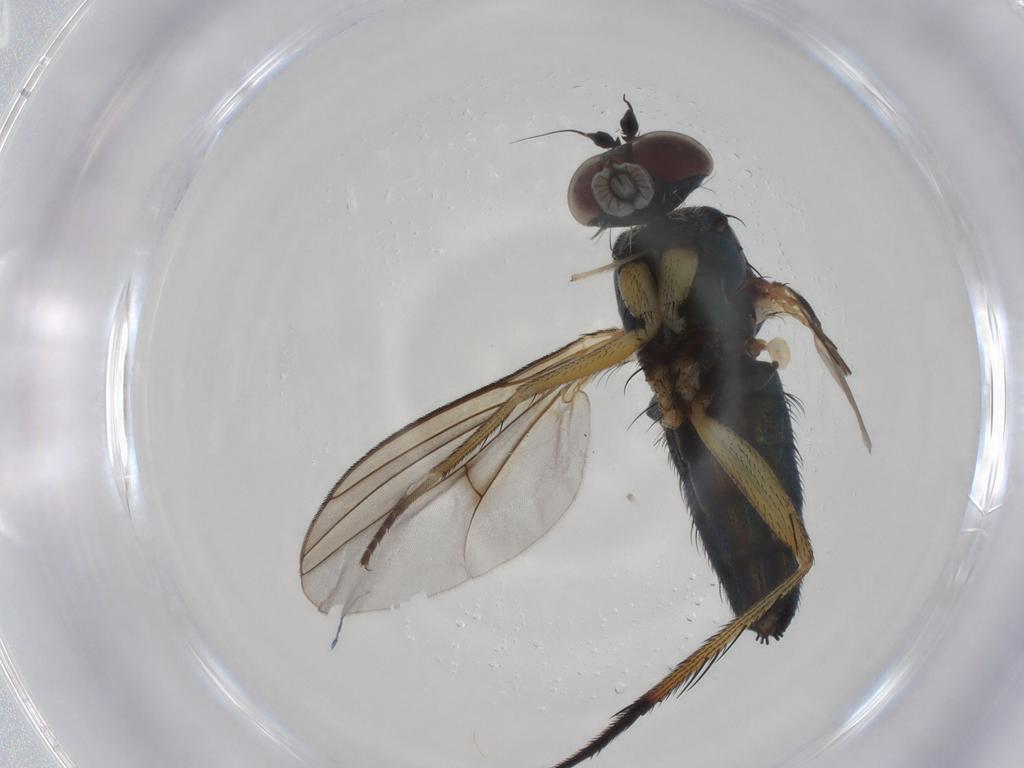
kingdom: Animalia
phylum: Arthropoda
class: Insecta
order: Diptera
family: Dolichopodidae
